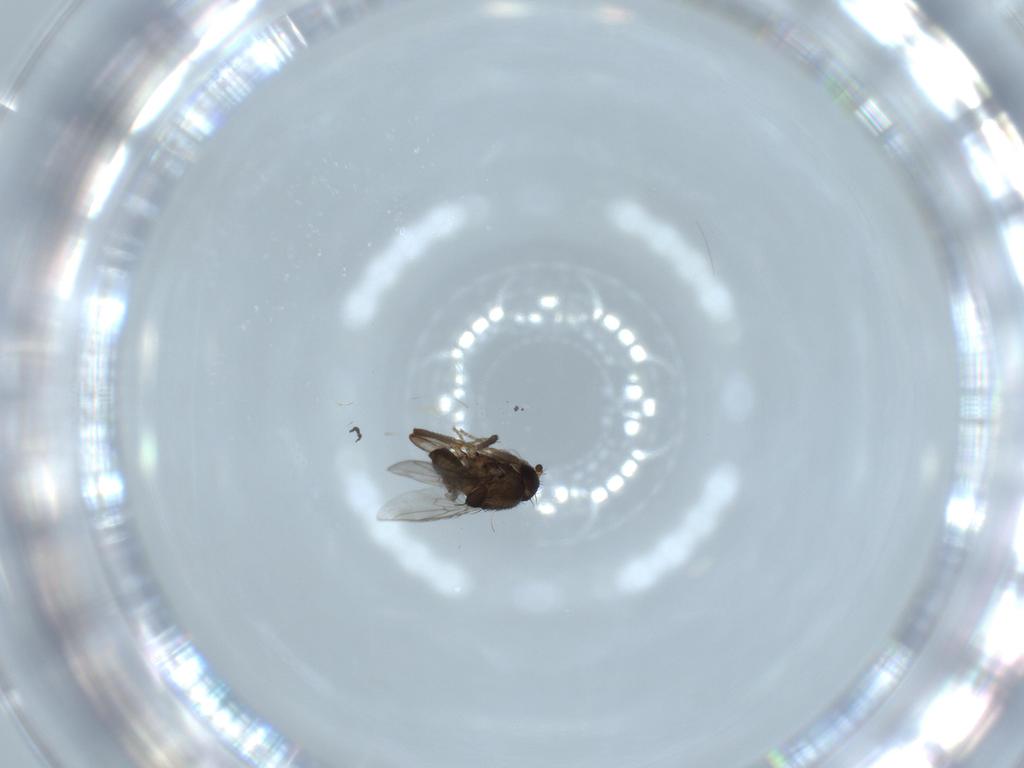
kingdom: Animalia
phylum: Arthropoda
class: Insecta
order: Diptera
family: Sphaeroceridae
